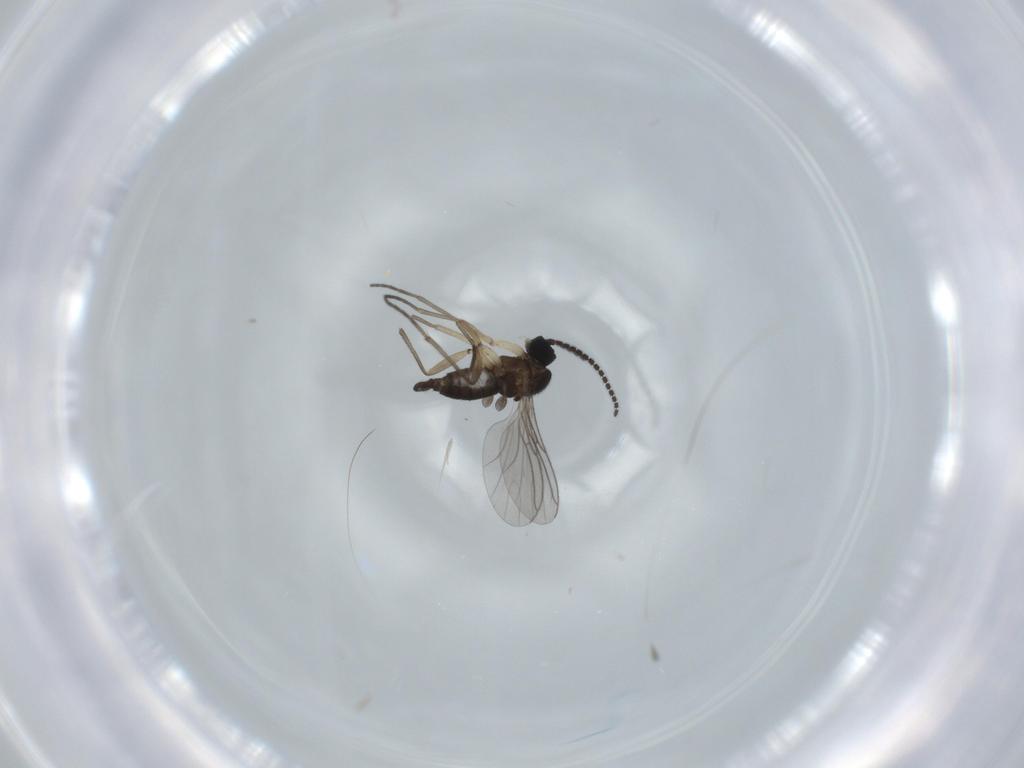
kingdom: Animalia
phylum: Arthropoda
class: Insecta
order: Diptera
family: Sciaridae
